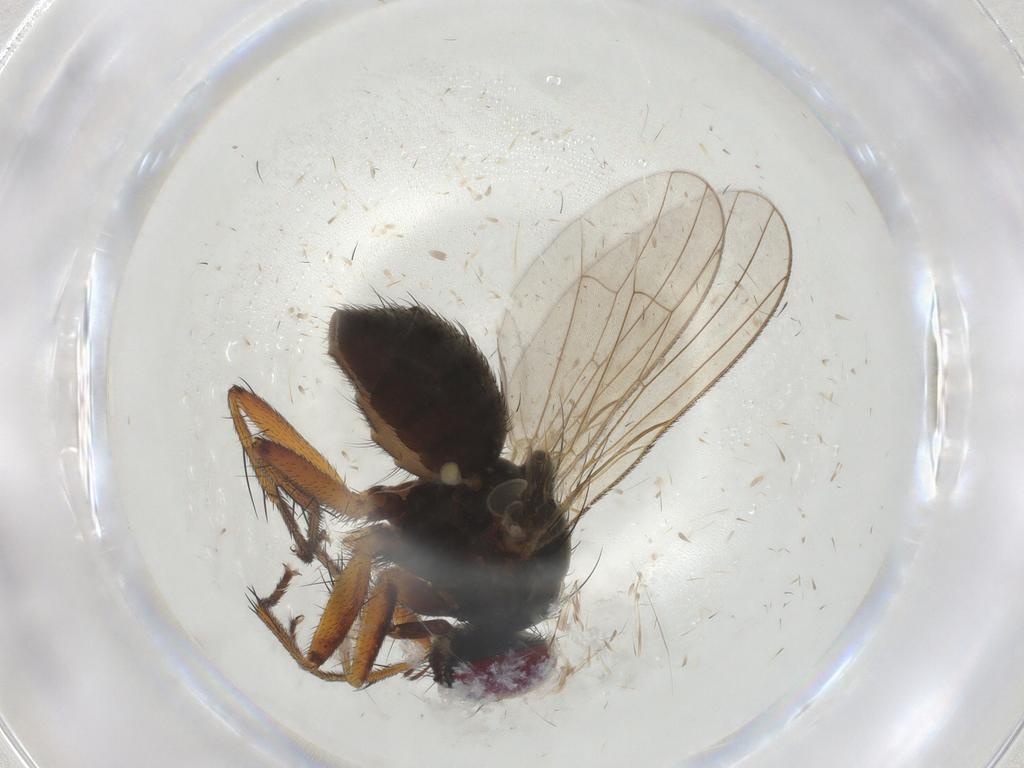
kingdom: Animalia
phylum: Arthropoda
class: Insecta
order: Diptera
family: Muscidae
